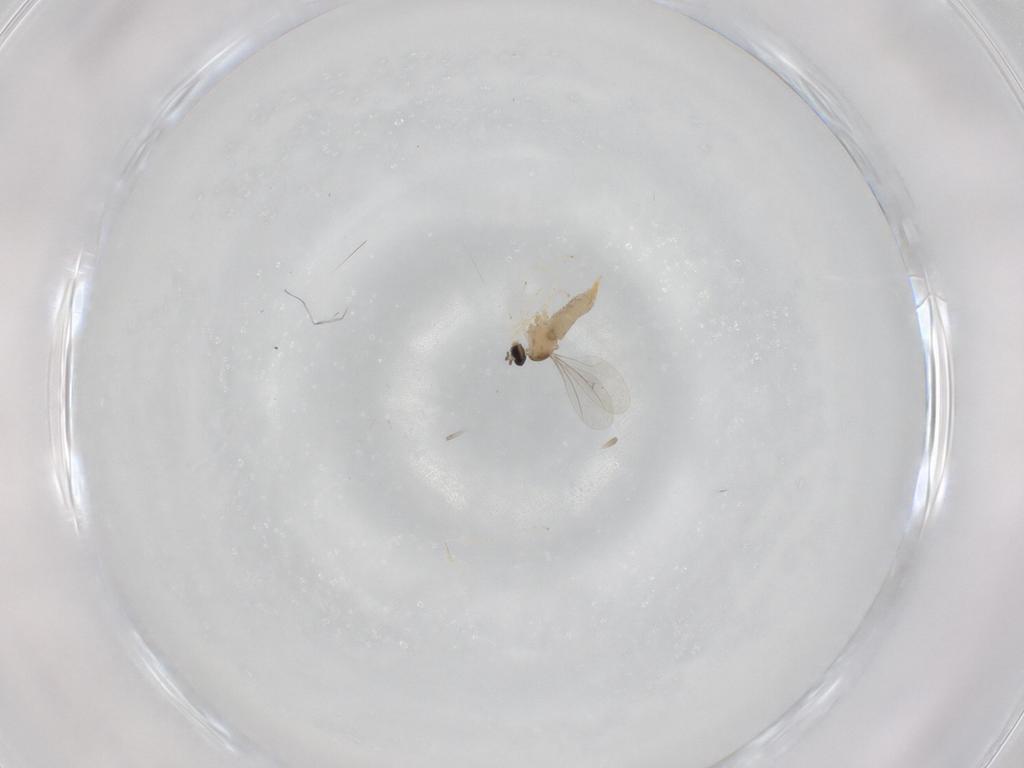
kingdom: Animalia
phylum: Arthropoda
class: Insecta
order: Diptera
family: Cecidomyiidae
